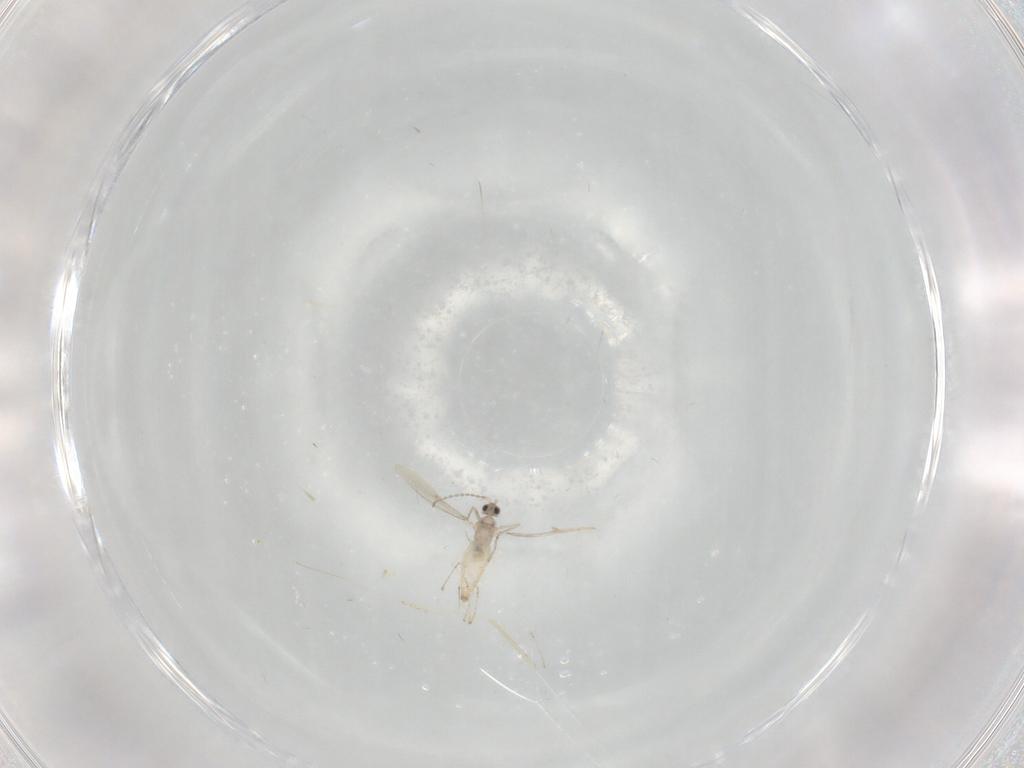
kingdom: Animalia
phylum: Arthropoda
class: Insecta
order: Diptera
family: Cecidomyiidae
